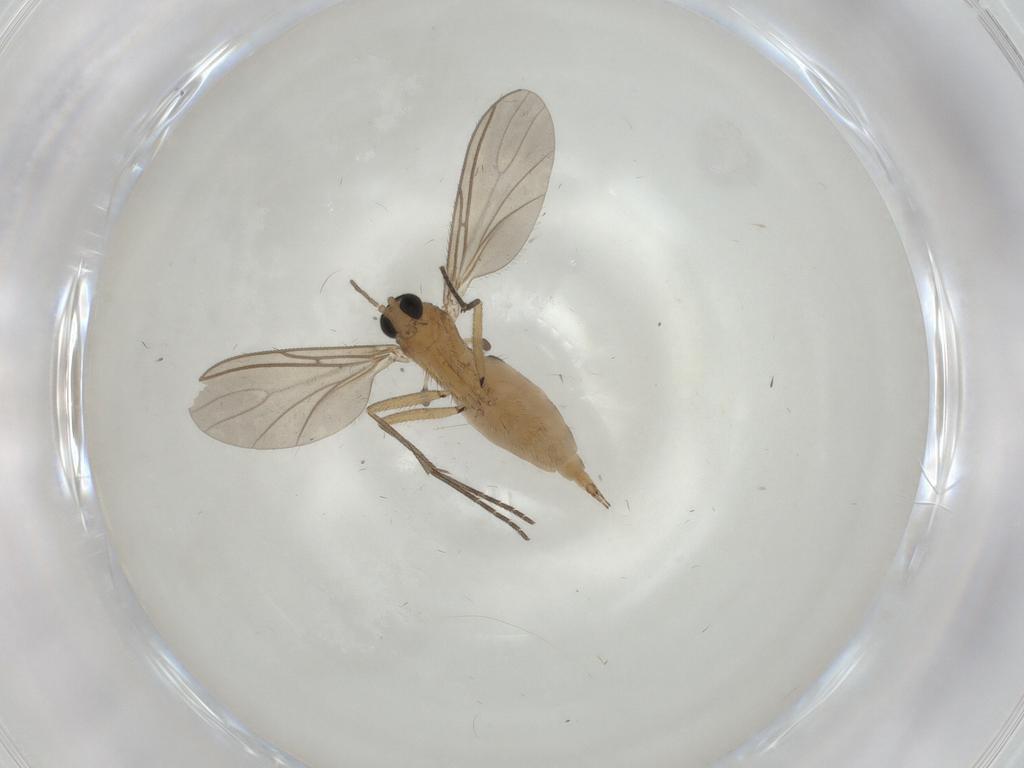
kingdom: Animalia
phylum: Arthropoda
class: Insecta
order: Diptera
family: Sciaridae
